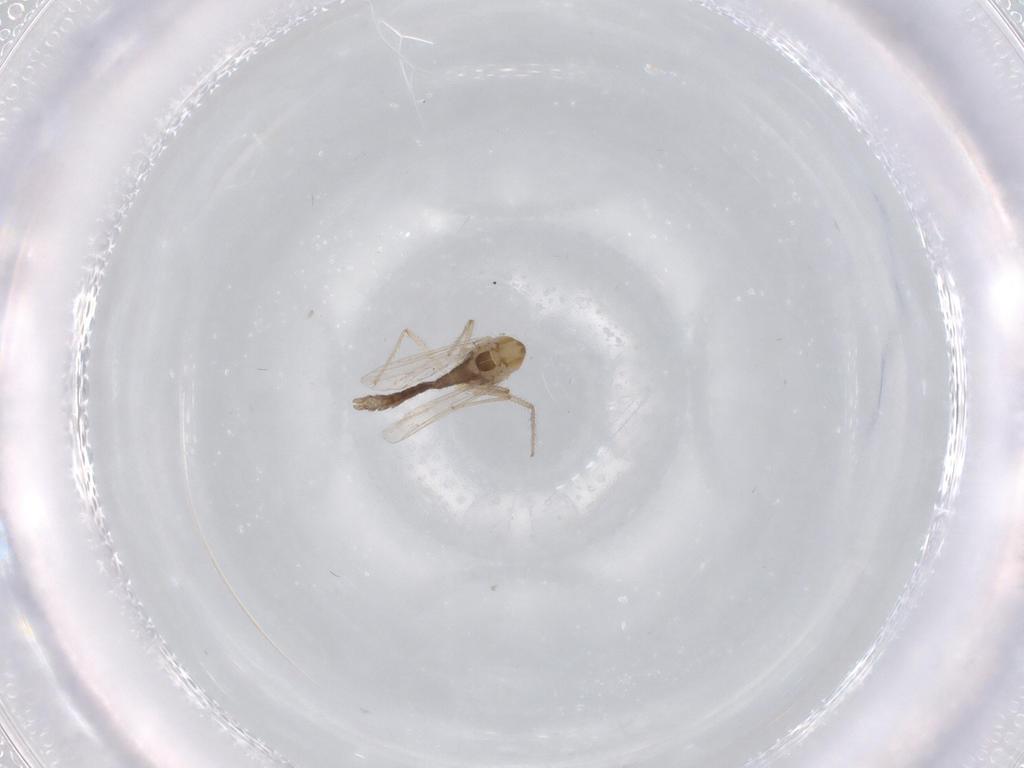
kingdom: Animalia
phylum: Arthropoda
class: Insecta
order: Diptera
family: Chironomidae
